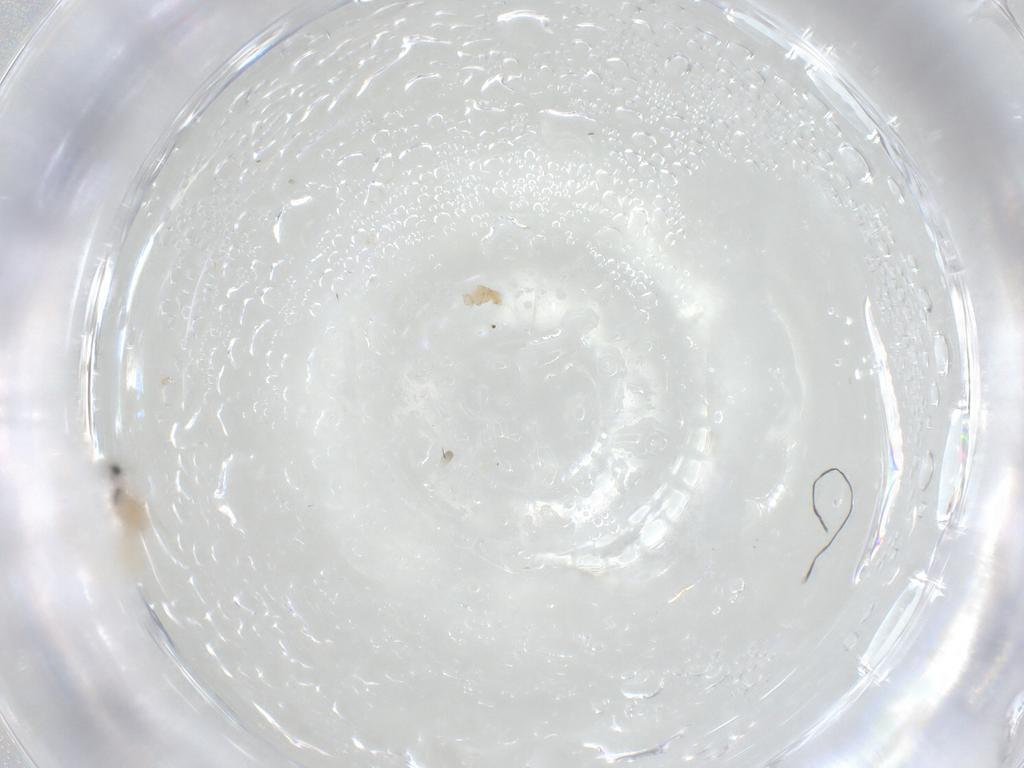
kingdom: Animalia
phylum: Arthropoda
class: Insecta
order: Diptera
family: Cecidomyiidae
